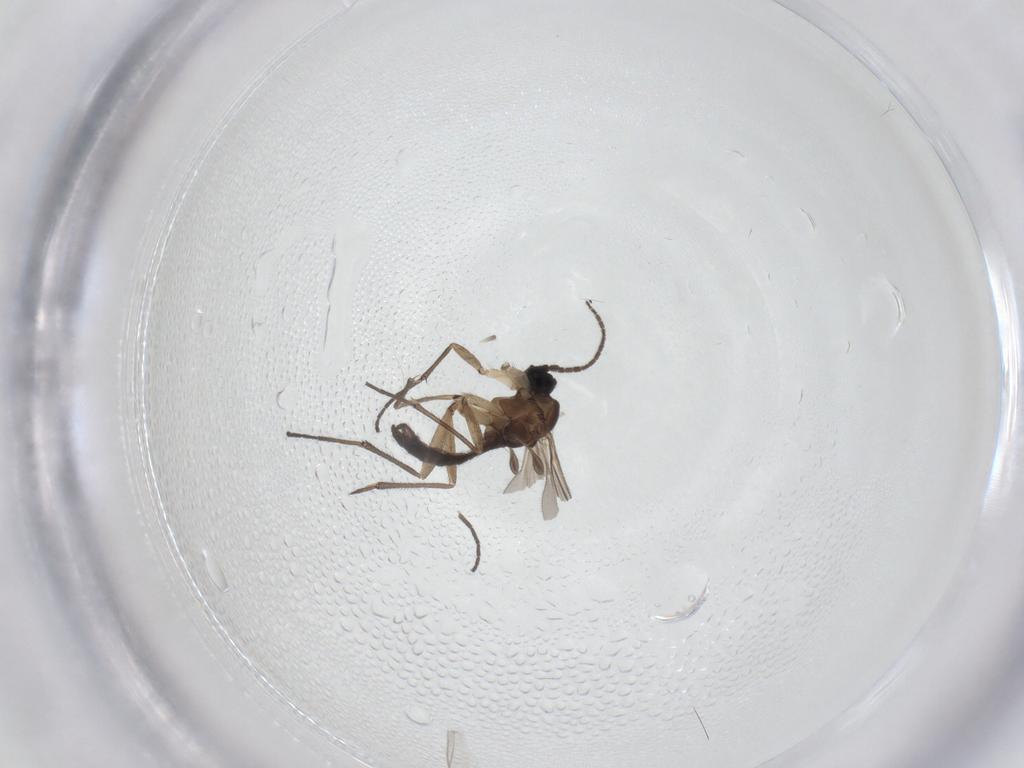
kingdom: Animalia
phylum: Arthropoda
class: Insecta
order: Diptera
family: Sciaridae
